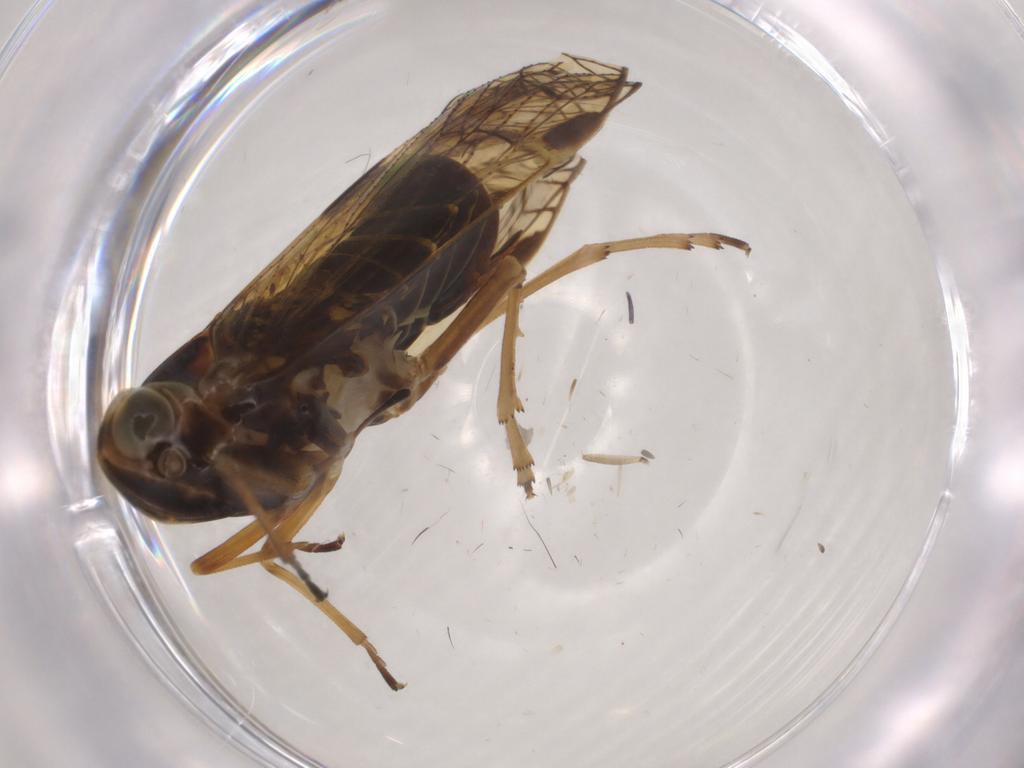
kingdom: Animalia
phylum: Arthropoda
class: Insecta
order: Hemiptera
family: Cixiidae
